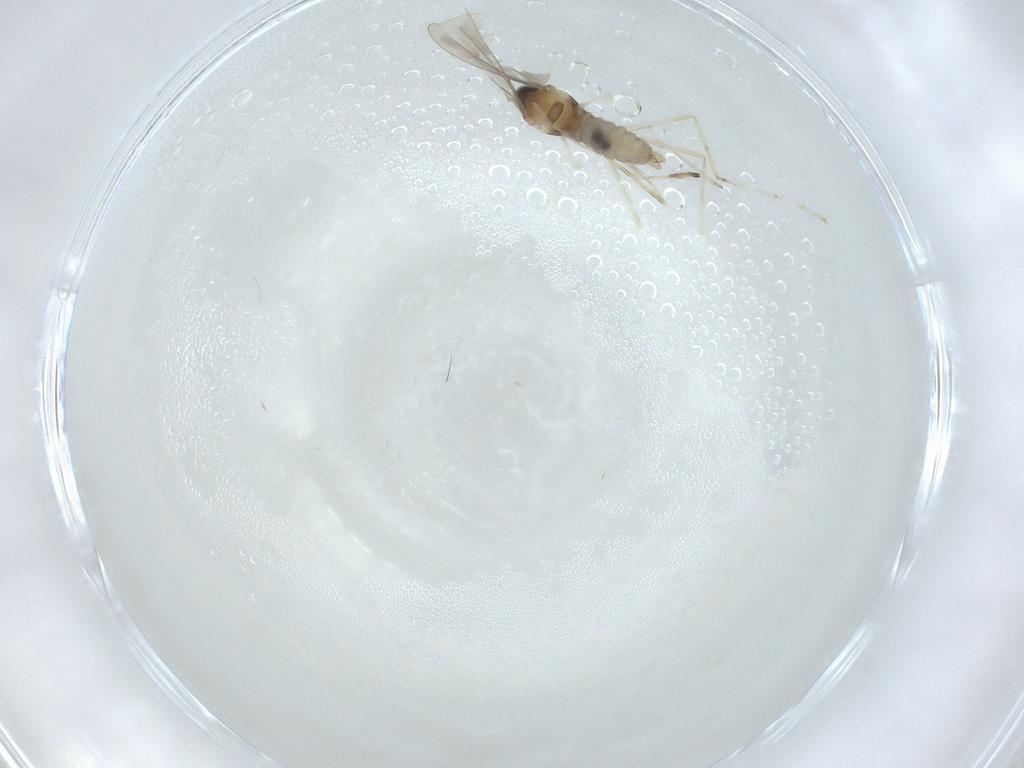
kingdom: Animalia
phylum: Arthropoda
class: Insecta
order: Diptera
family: Cecidomyiidae
